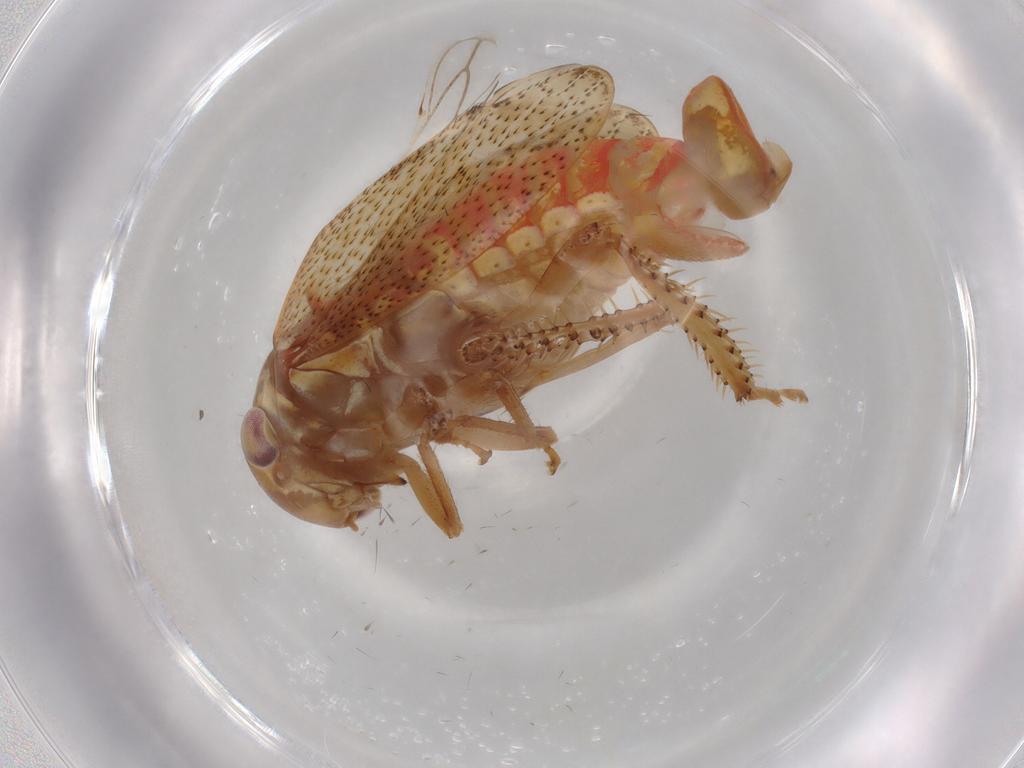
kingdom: Animalia
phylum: Arthropoda
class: Insecta
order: Hemiptera
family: Cicadellidae
